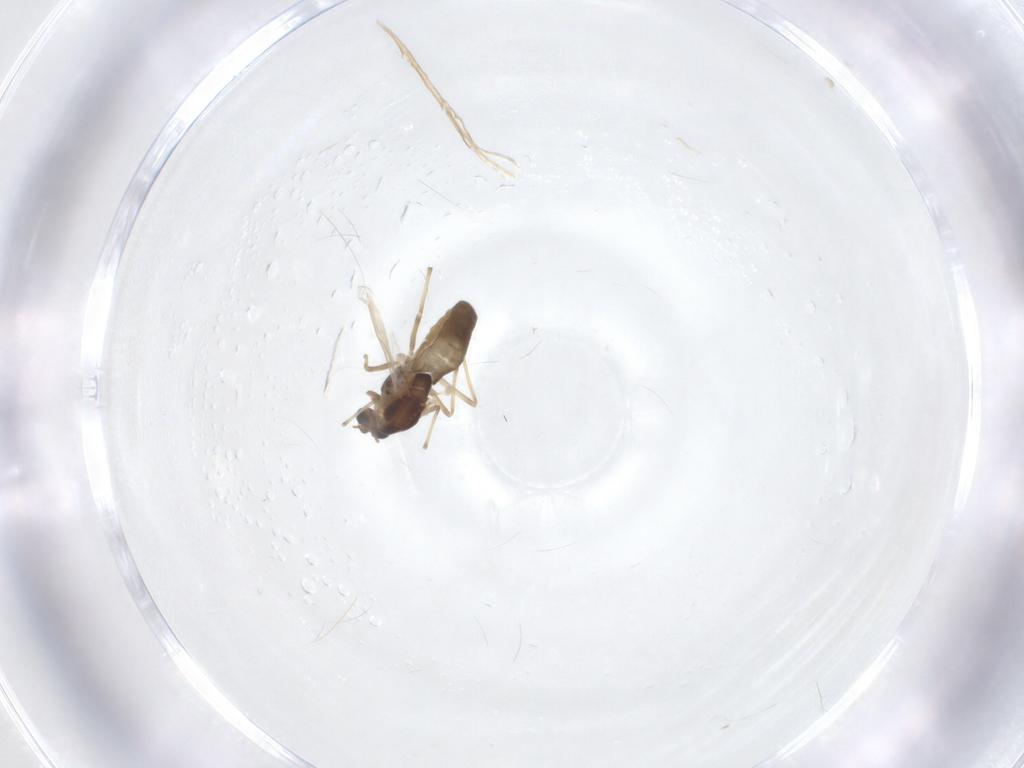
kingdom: Animalia
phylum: Arthropoda
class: Insecta
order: Diptera
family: Chironomidae
